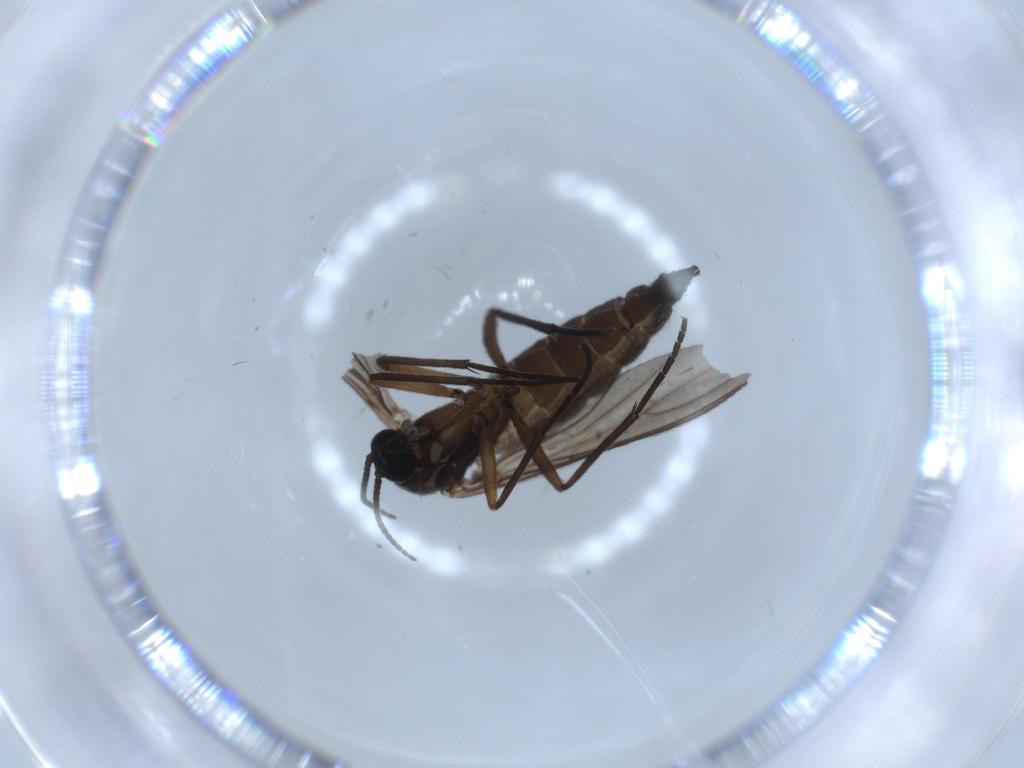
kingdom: Animalia
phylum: Arthropoda
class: Insecta
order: Diptera
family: Sciaridae
